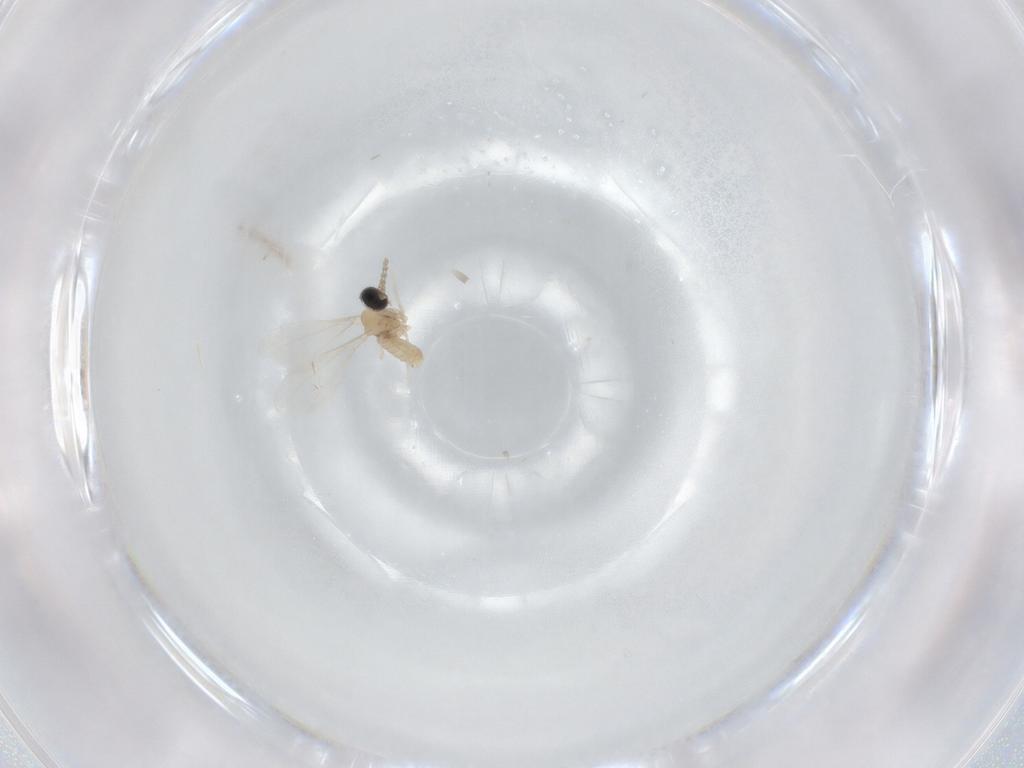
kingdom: Animalia
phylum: Arthropoda
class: Insecta
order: Diptera
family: Cecidomyiidae
